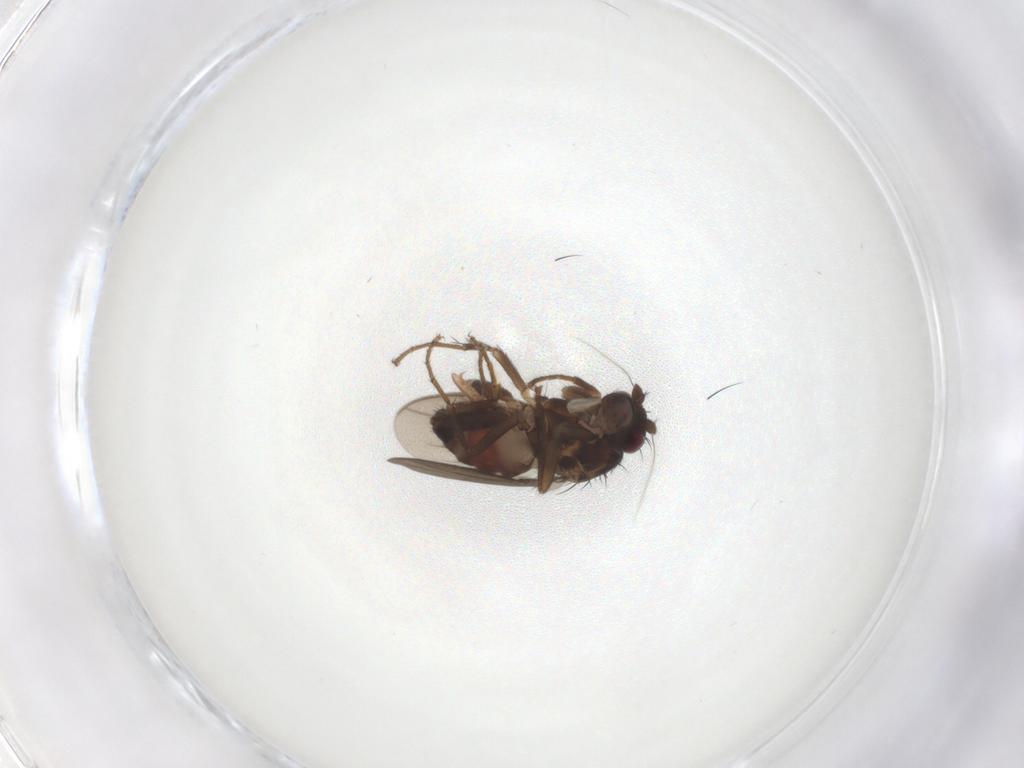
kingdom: Animalia
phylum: Arthropoda
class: Insecta
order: Diptera
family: Sphaeroceridae
